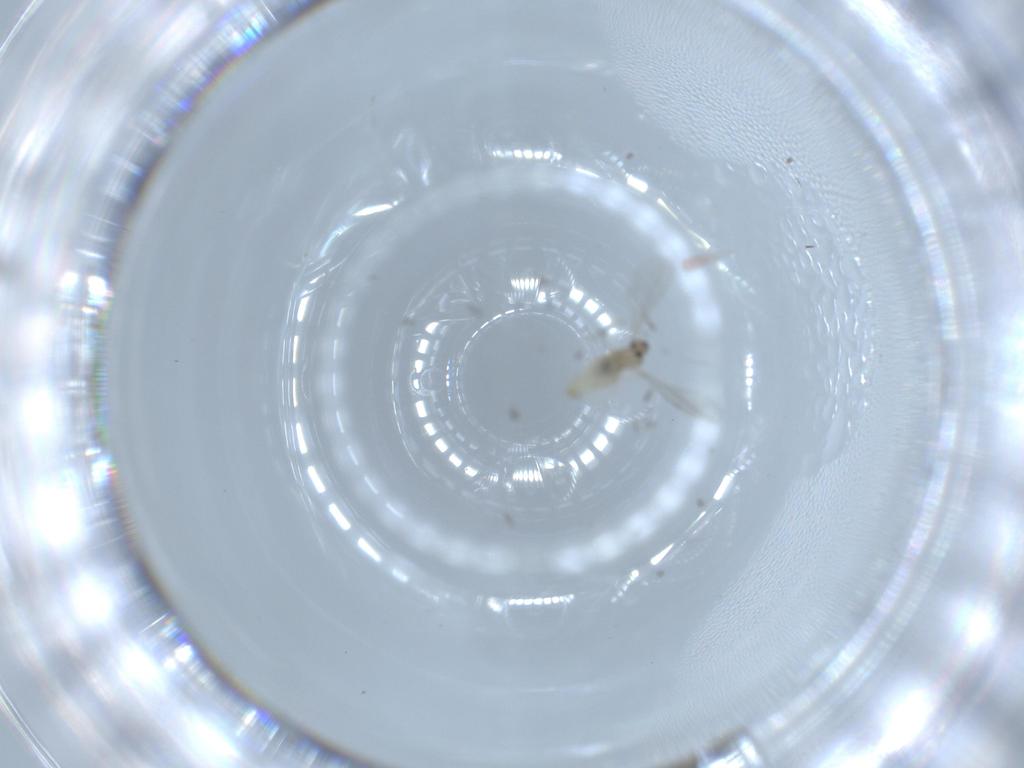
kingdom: Animalia
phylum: Arthropoda
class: Insecta
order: Diptera
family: Cecidomyiidae
